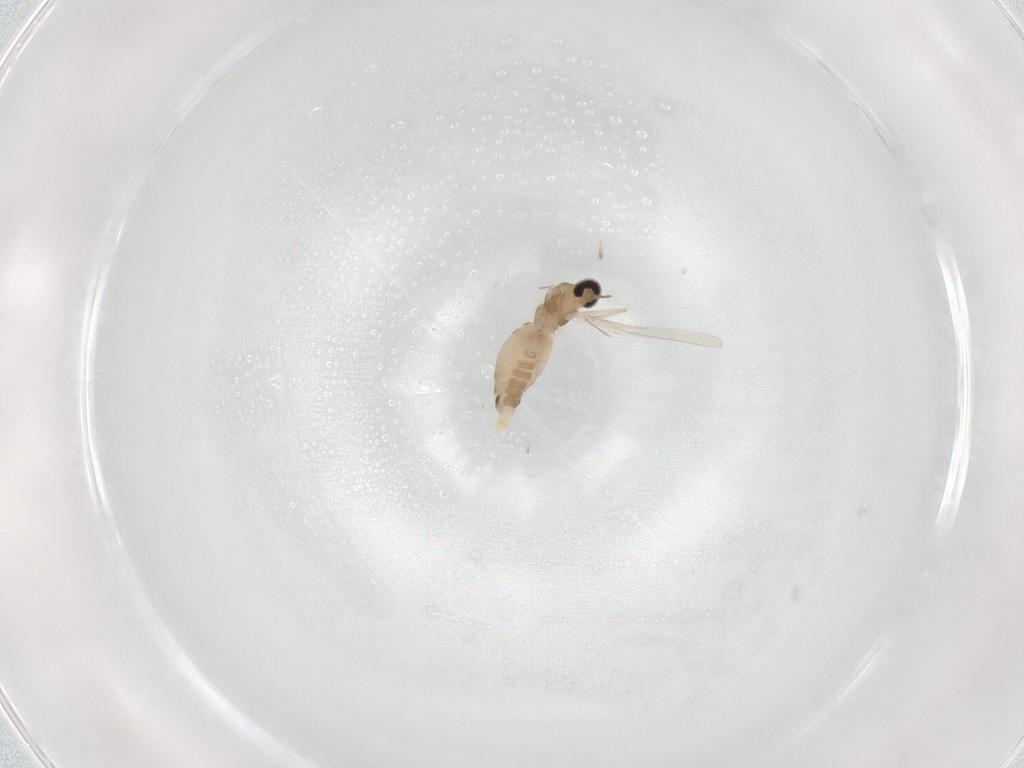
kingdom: Animalia
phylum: Arthropoda
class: Insecta
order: Diptera
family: Cecidomyiidae
